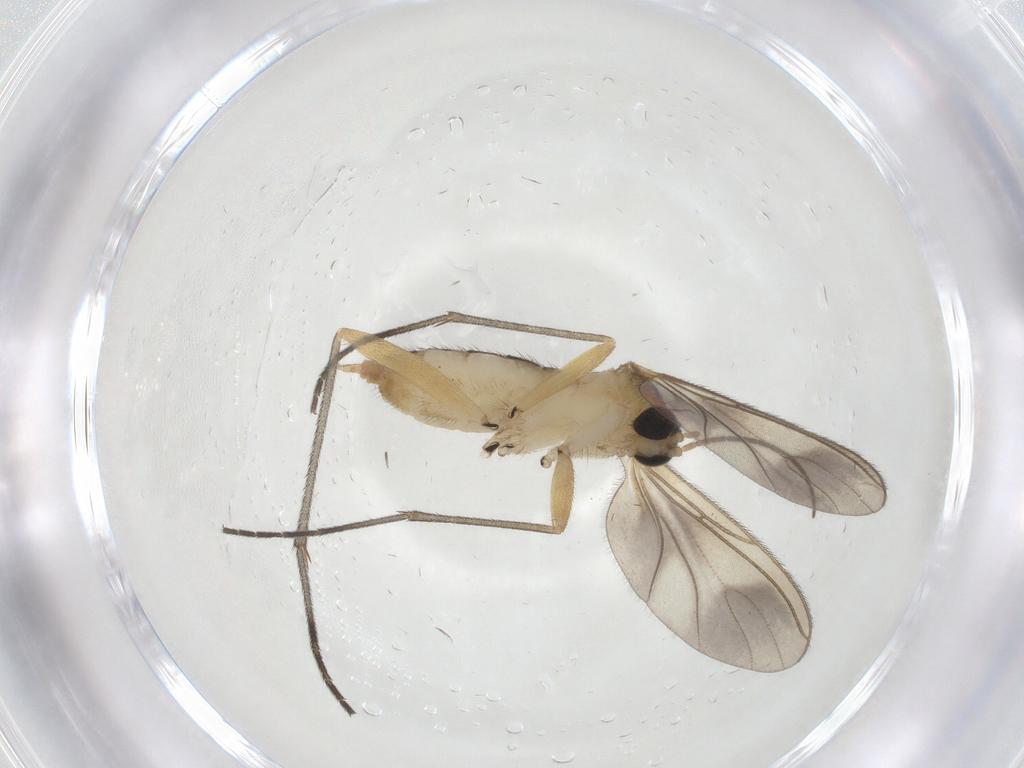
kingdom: Animalia
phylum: Arthropoda
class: Insecta
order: Diptera
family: Sciaridae
